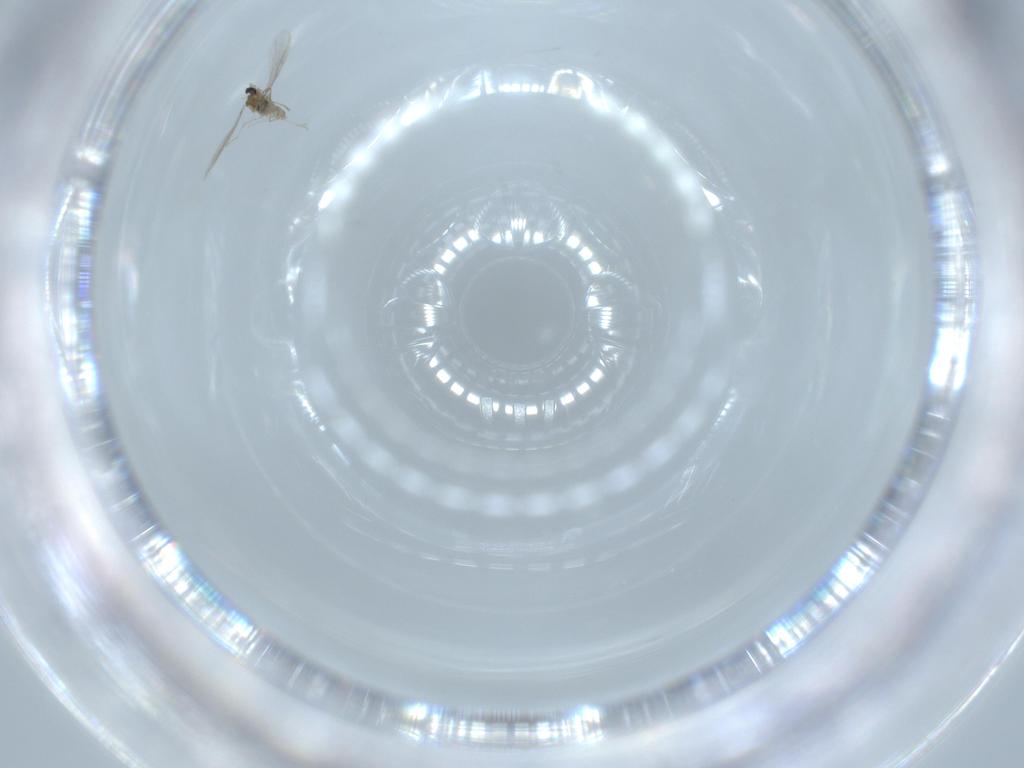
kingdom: Animalia
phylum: Arthropoda
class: Insecta
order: Diptera
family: Cecidomyiidae
